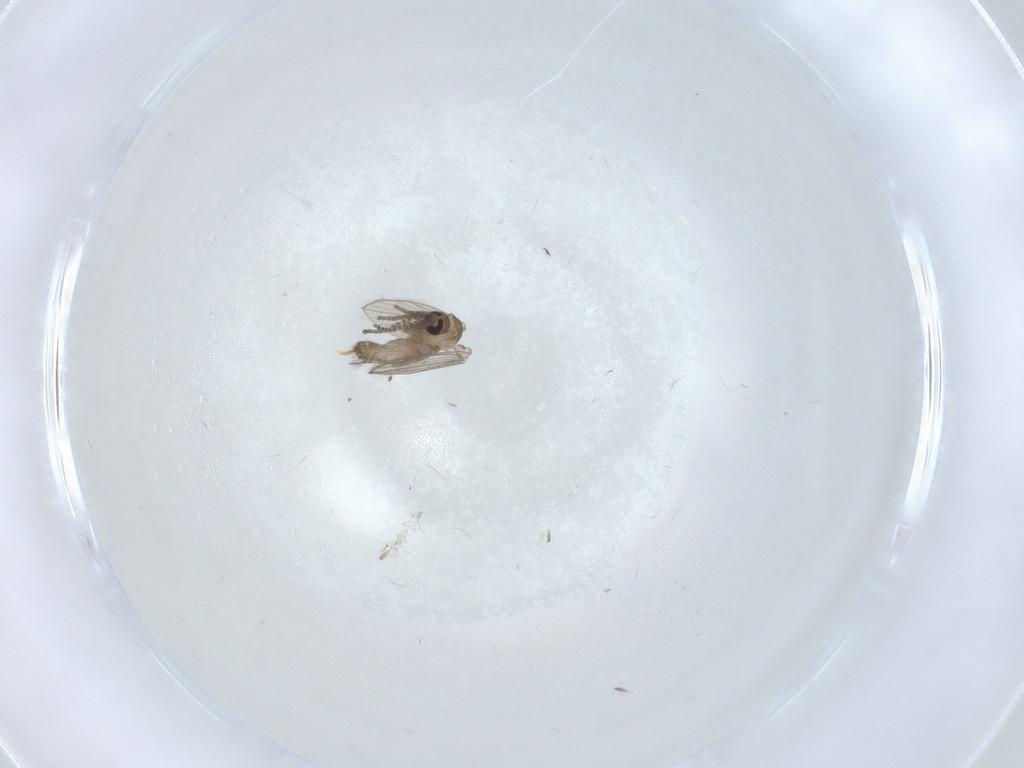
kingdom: Animalia
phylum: Arthropoda
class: Insecta
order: Diptera
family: Psychodidae
